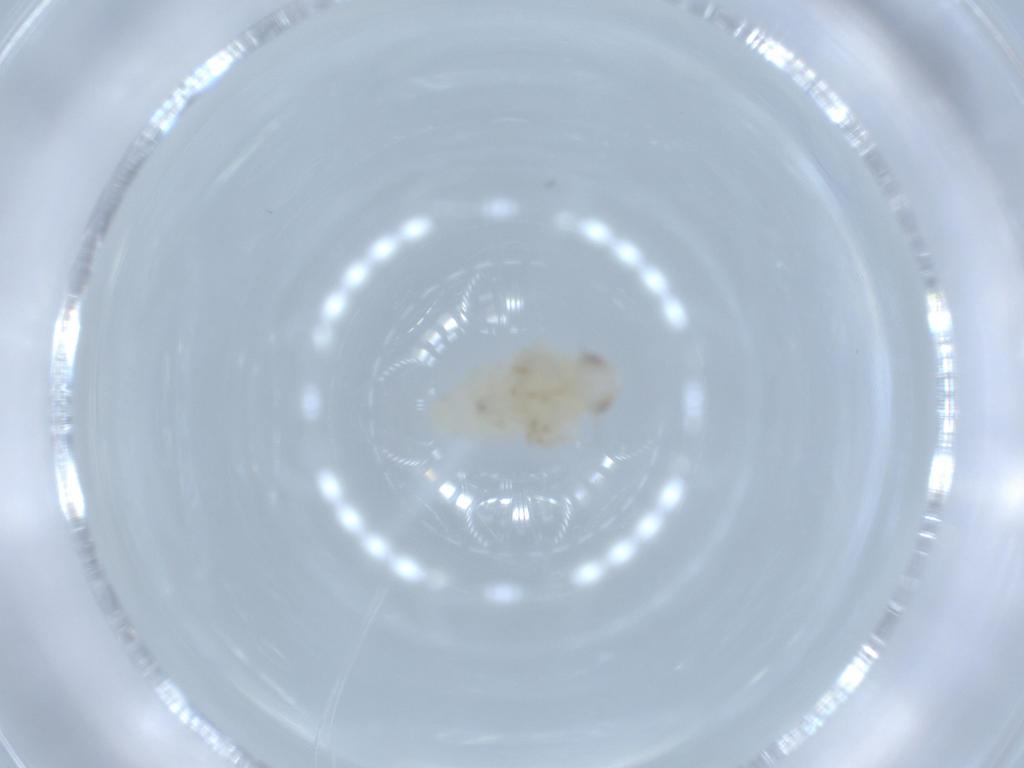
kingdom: Animalia
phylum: Arthropoda
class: Insecta
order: Hemiptera
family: Nogodinidae
